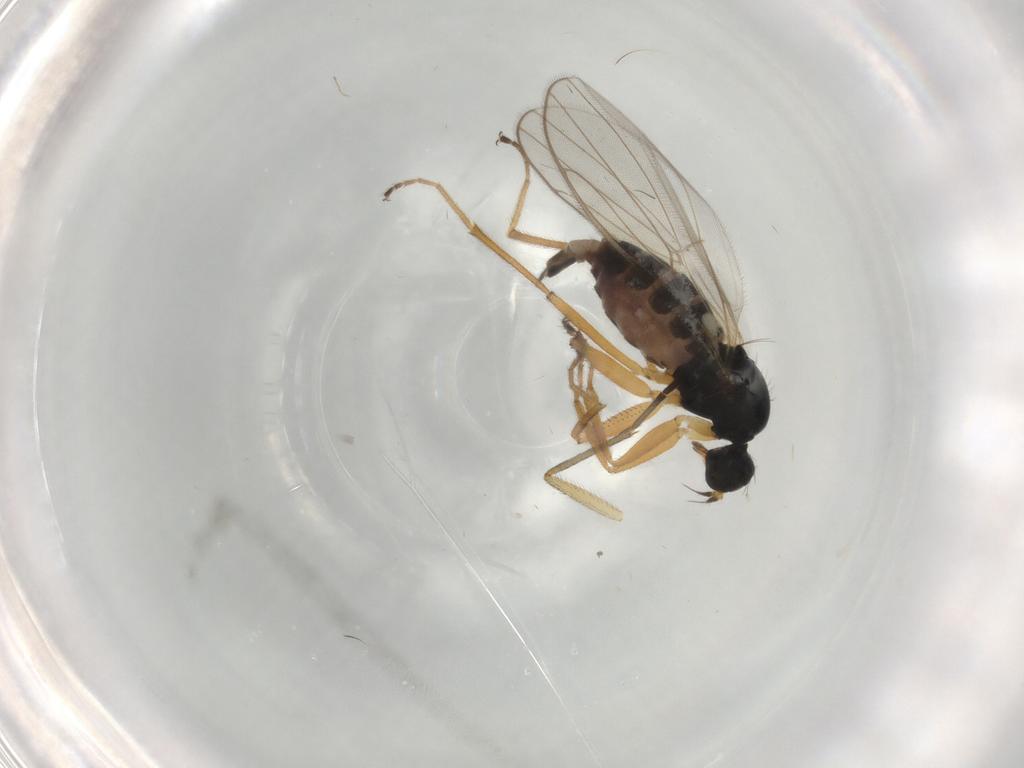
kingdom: Animalia
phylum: Arthropoda
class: Insecta
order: Diptera
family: Hybotidae
